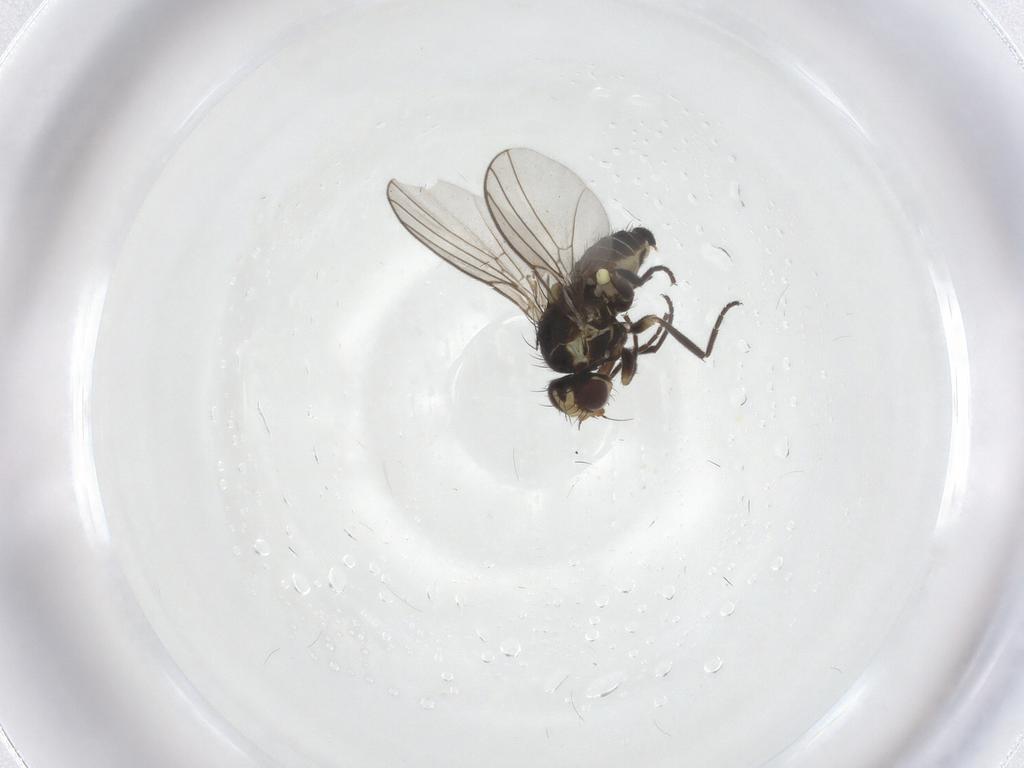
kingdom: Animalia
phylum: Arthropoda
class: Insecta
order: Diptera
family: Agromyzidae
